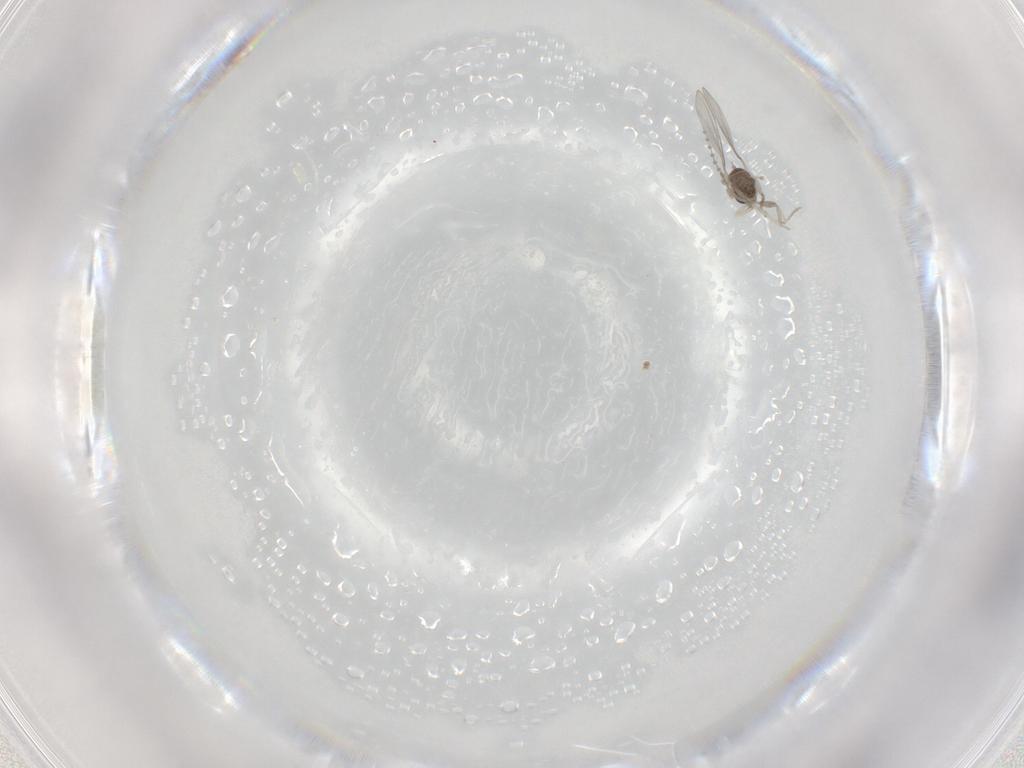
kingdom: Animalia
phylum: Arthropoda
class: Insecta
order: Diptera
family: Cecidomyiidae
